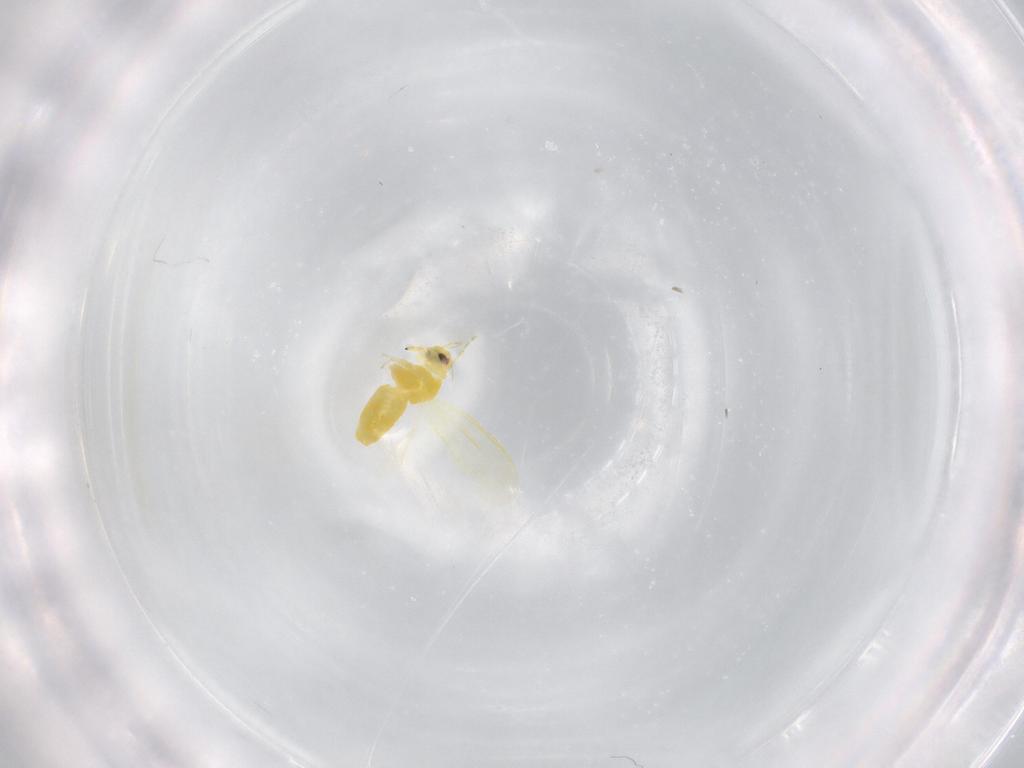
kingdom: Animalia
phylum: Arthropoda
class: Insecta
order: Hemiptera
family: Aleyrodidae
